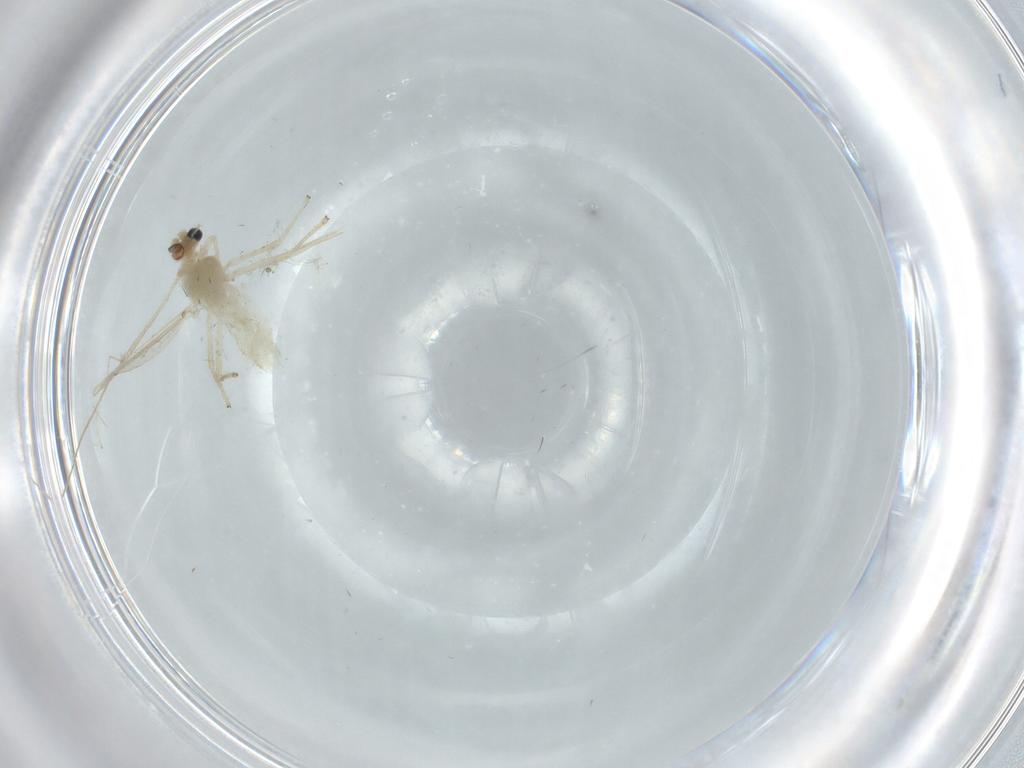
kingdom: Animalia
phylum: Arthropoda
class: Insecta
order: Diptera
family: Chironomidae
